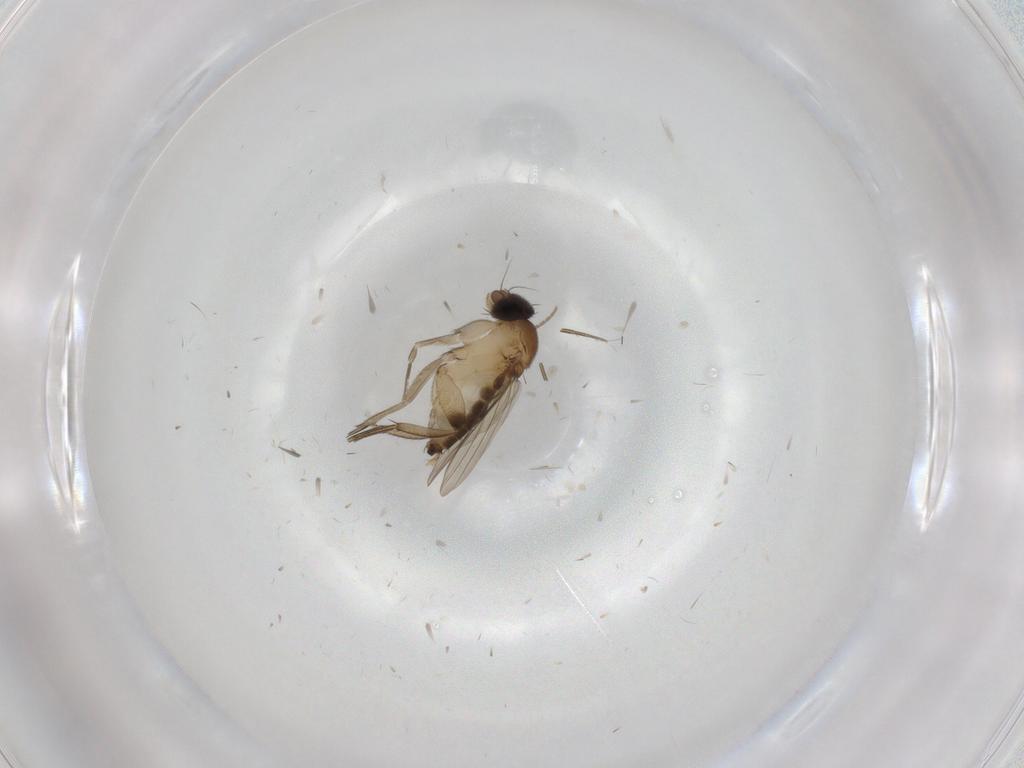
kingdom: Animalia
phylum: Arthropoda
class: Insecta
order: Diptera
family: Phoridae
